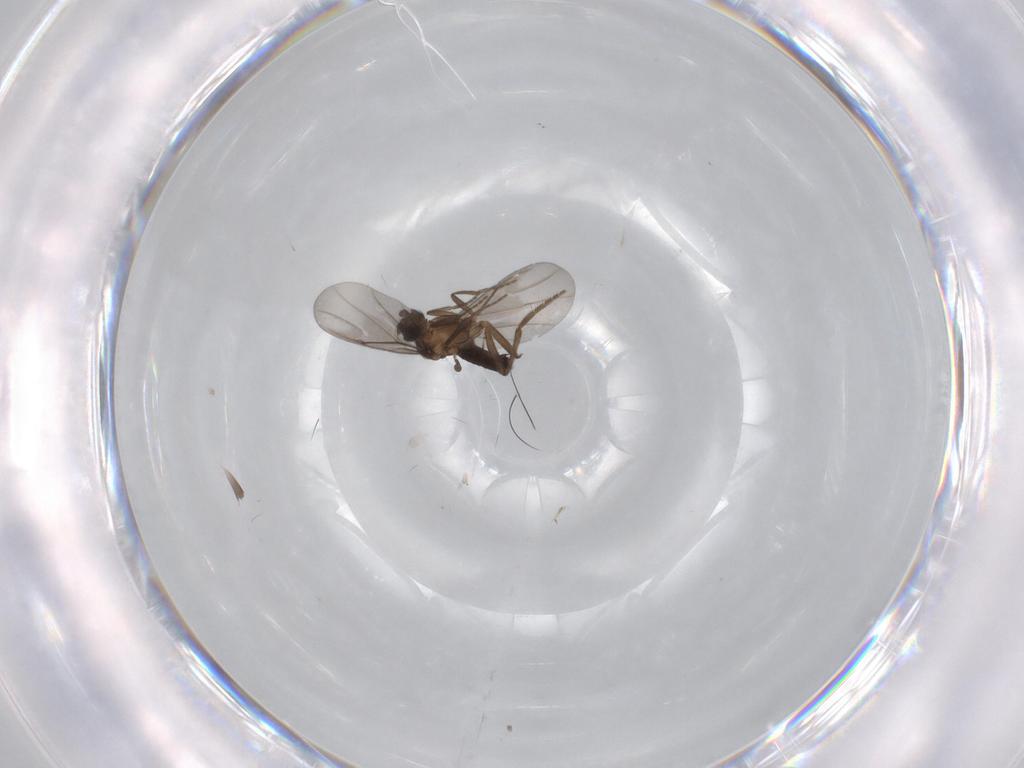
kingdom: Animalia
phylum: Arthropoda
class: Insecta
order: Diptera
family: Phoridae
